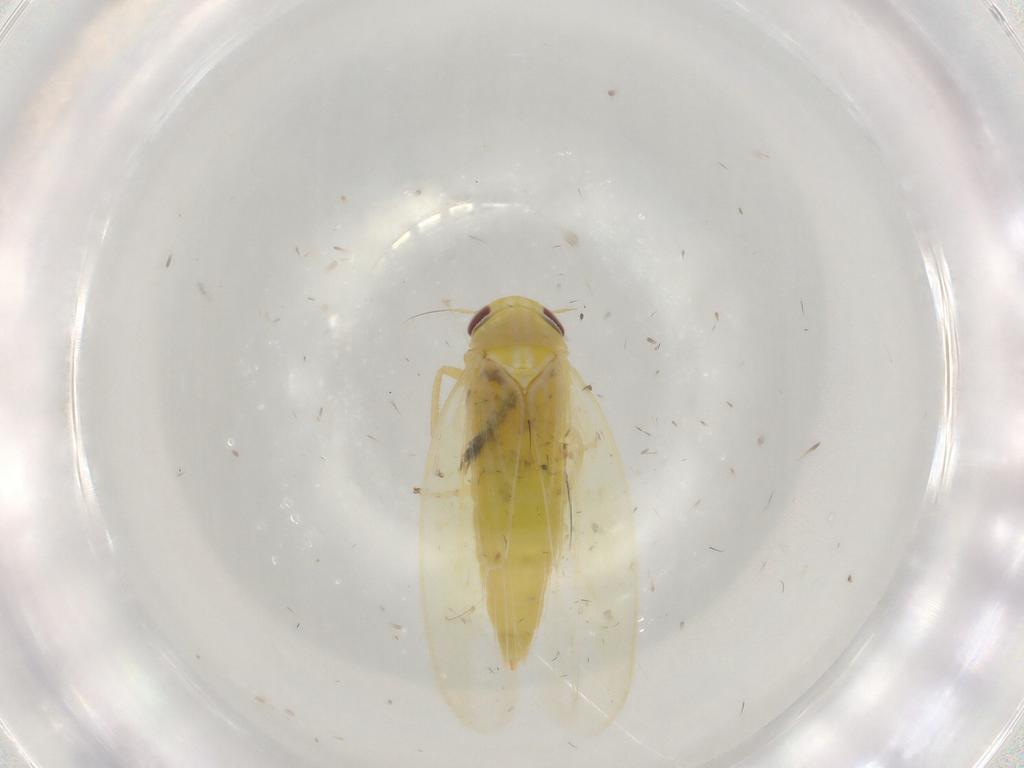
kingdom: Animalia
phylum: Arthropoda
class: Insecta
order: Hemiptera
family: Cicadellidae
